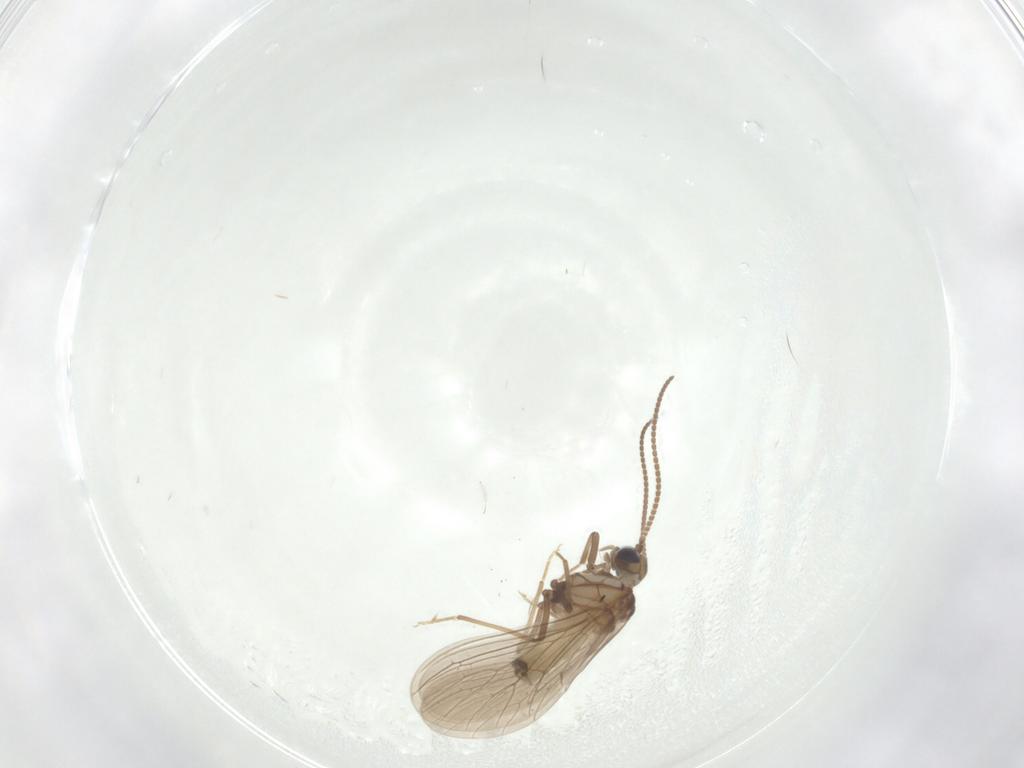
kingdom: Animalia
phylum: Arthropoda
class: Insecta
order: Neuroptera
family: Coniopterygidae
